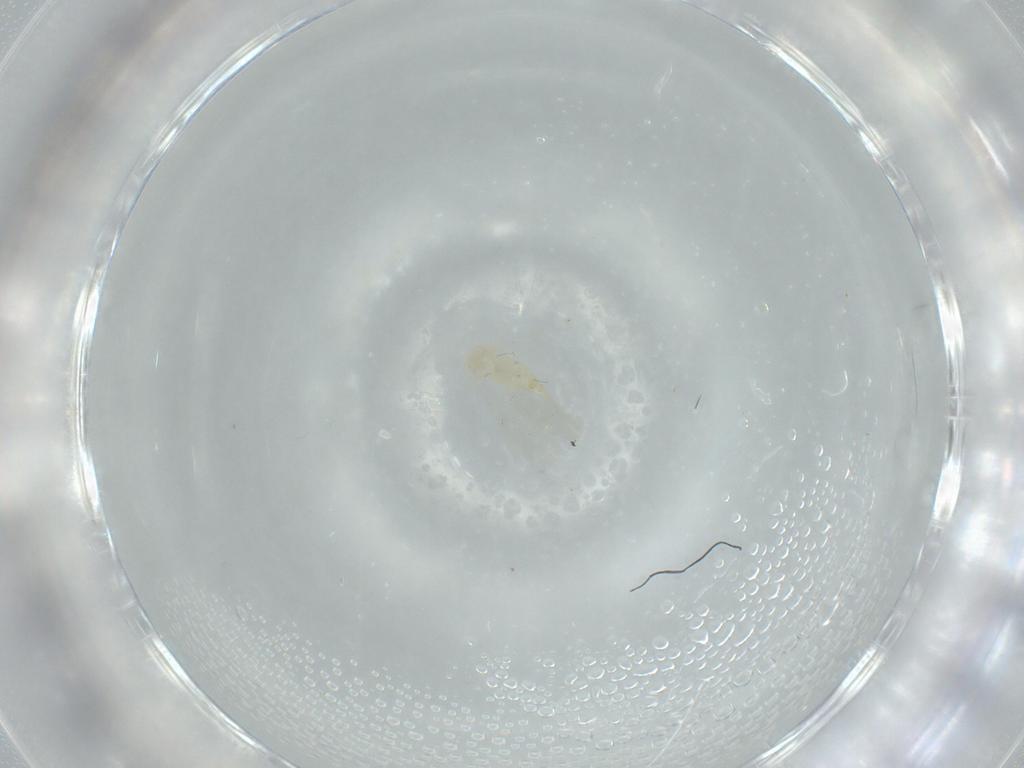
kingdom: Animalia
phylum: Arthropoda
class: Insecta
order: Diptera
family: Cecidomyiidae
